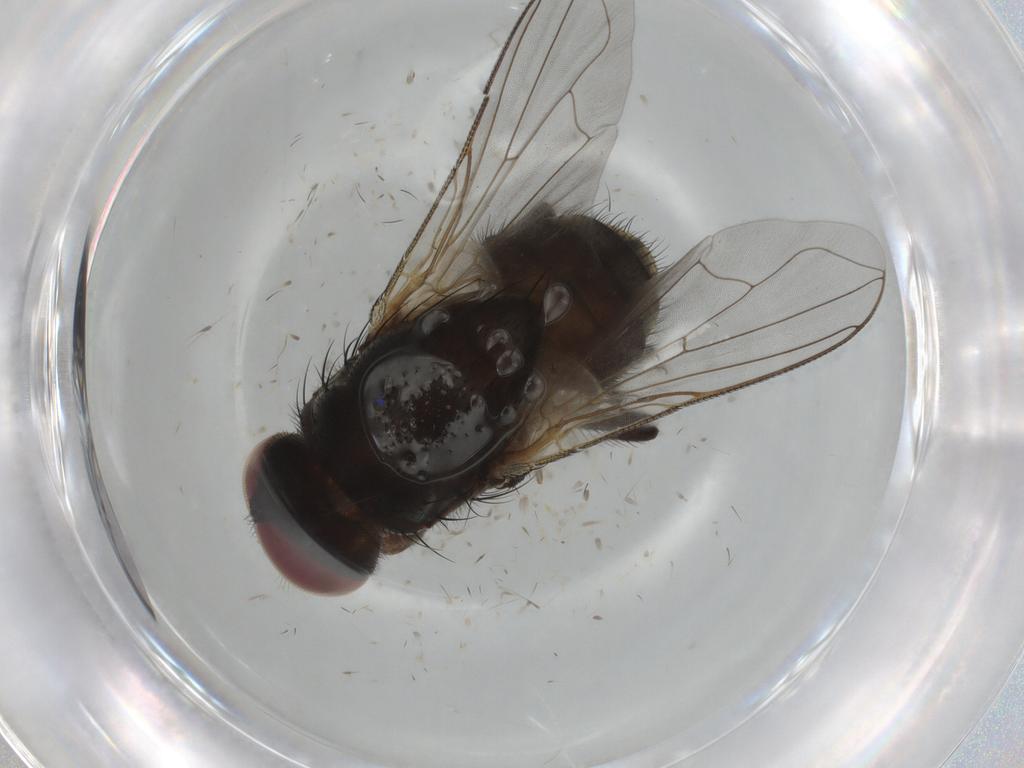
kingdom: Animalia
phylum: Arthropoda
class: Insecta
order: Diptera
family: Muscidae
